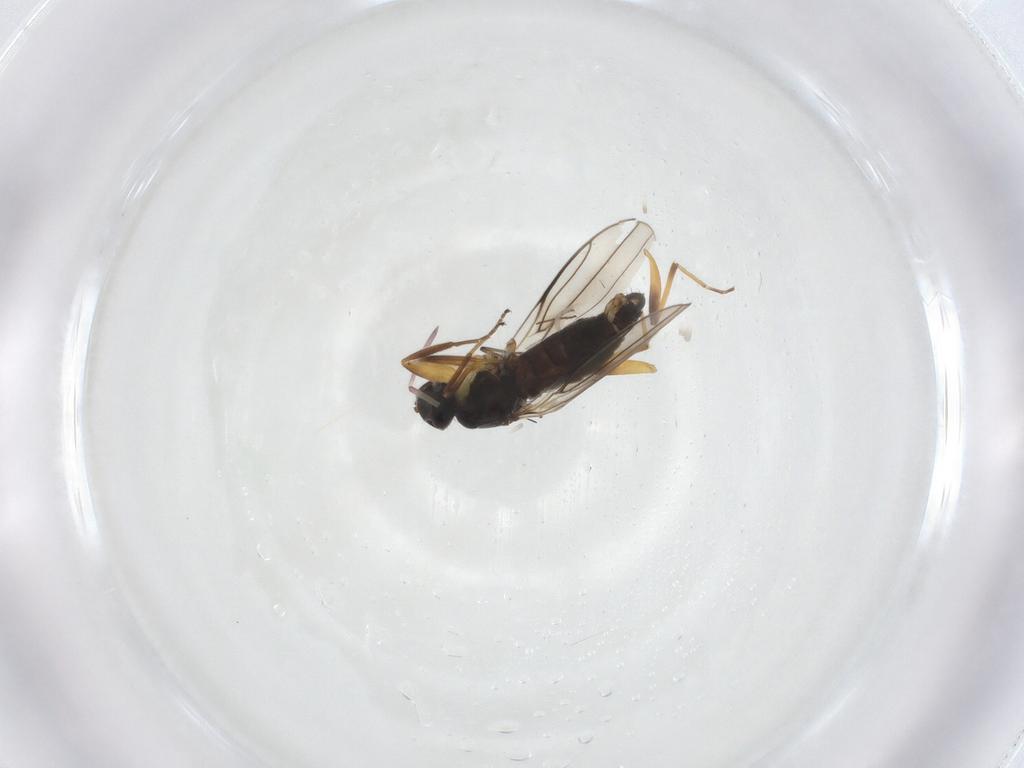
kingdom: Animalia
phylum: Arthropoda
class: Insecta
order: Diptera
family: Hybotidae
